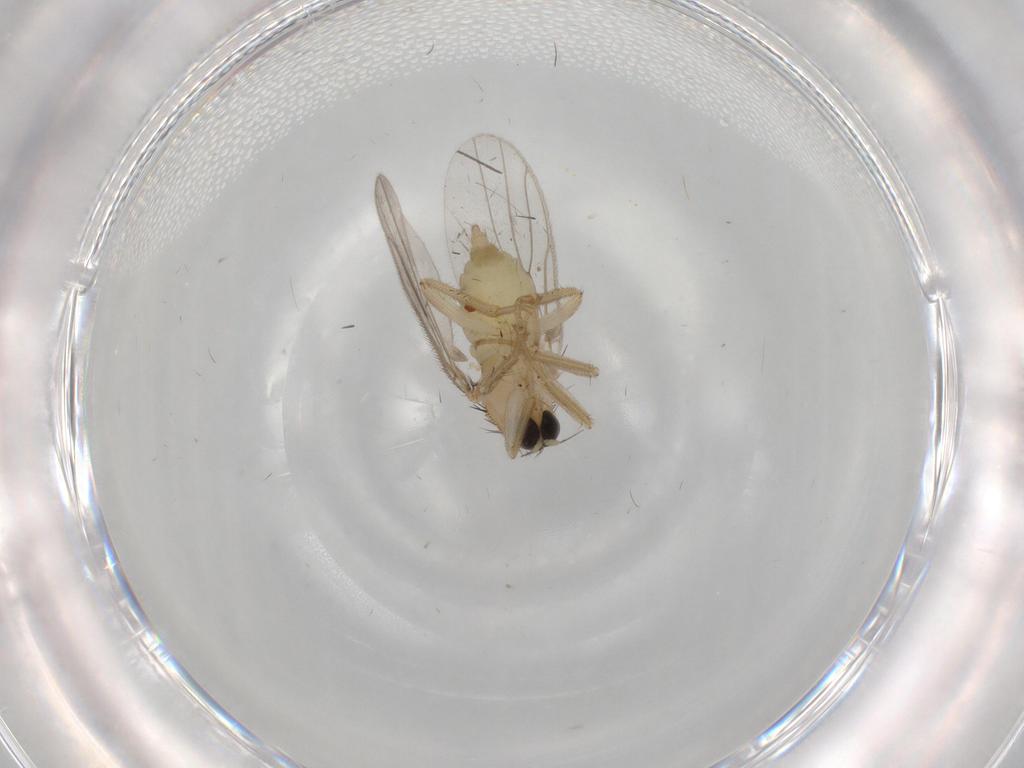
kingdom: Animalia
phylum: Arthropoda
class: Insecta
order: Diptera
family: Hybotidae
